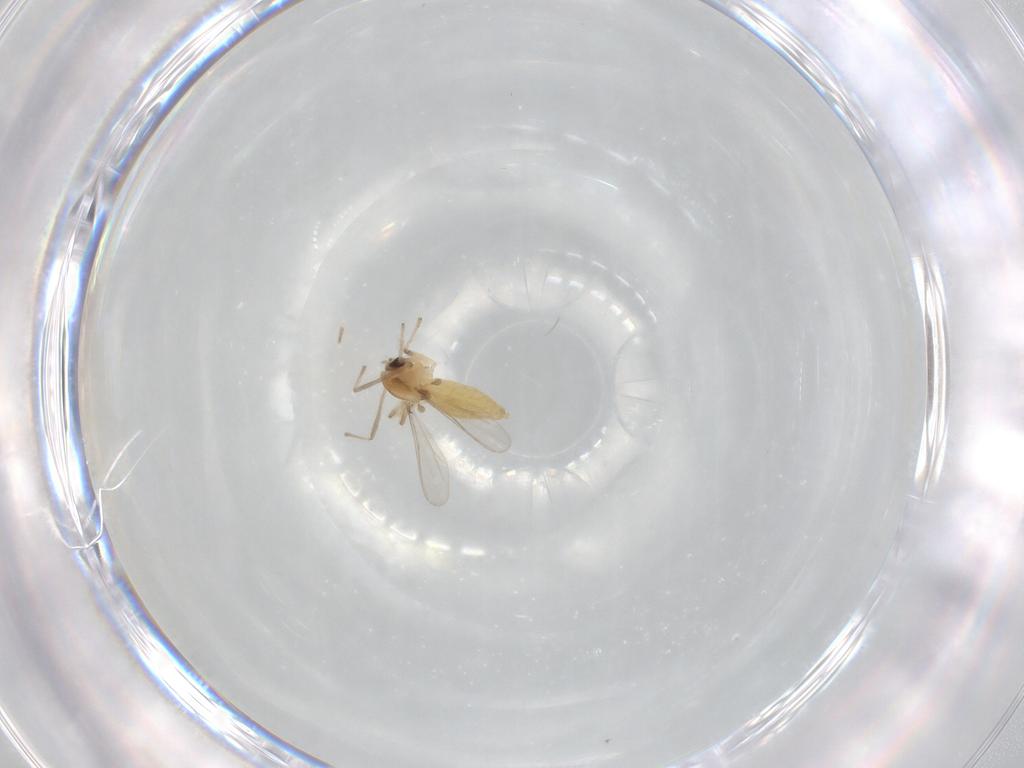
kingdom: Animalia
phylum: Arthropoda
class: Insecta
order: Diptera
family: Chironomidae
